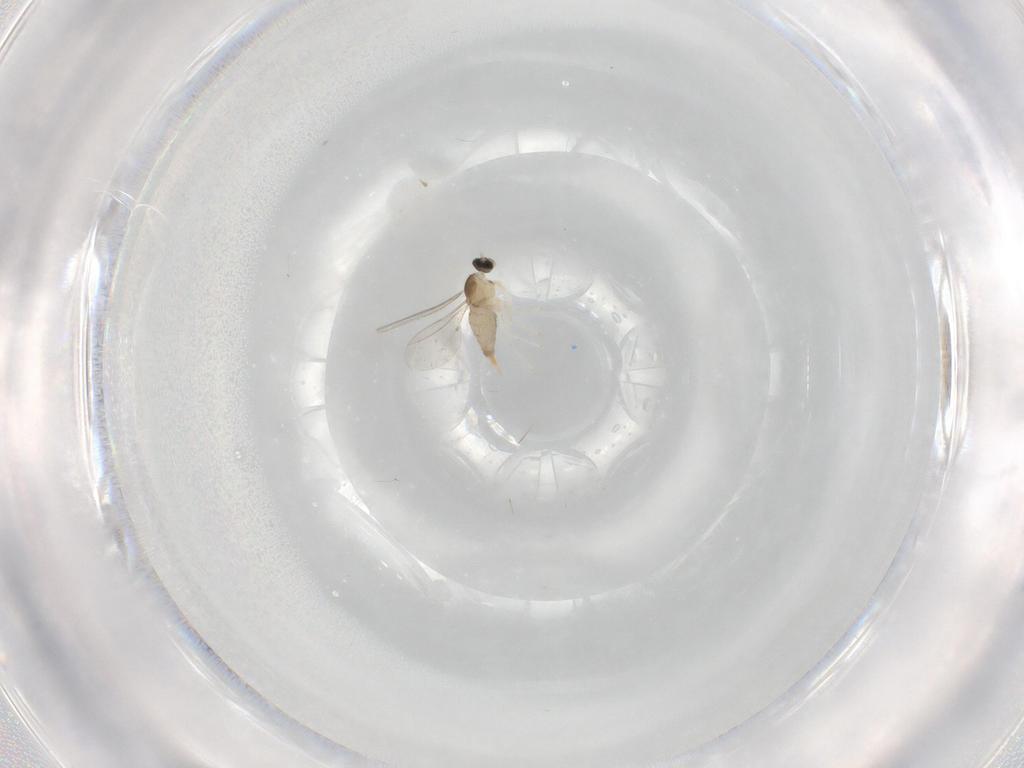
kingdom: Animalia
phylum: Arthropoda
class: Insecta
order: Diptera
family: Cecidomyiidae
